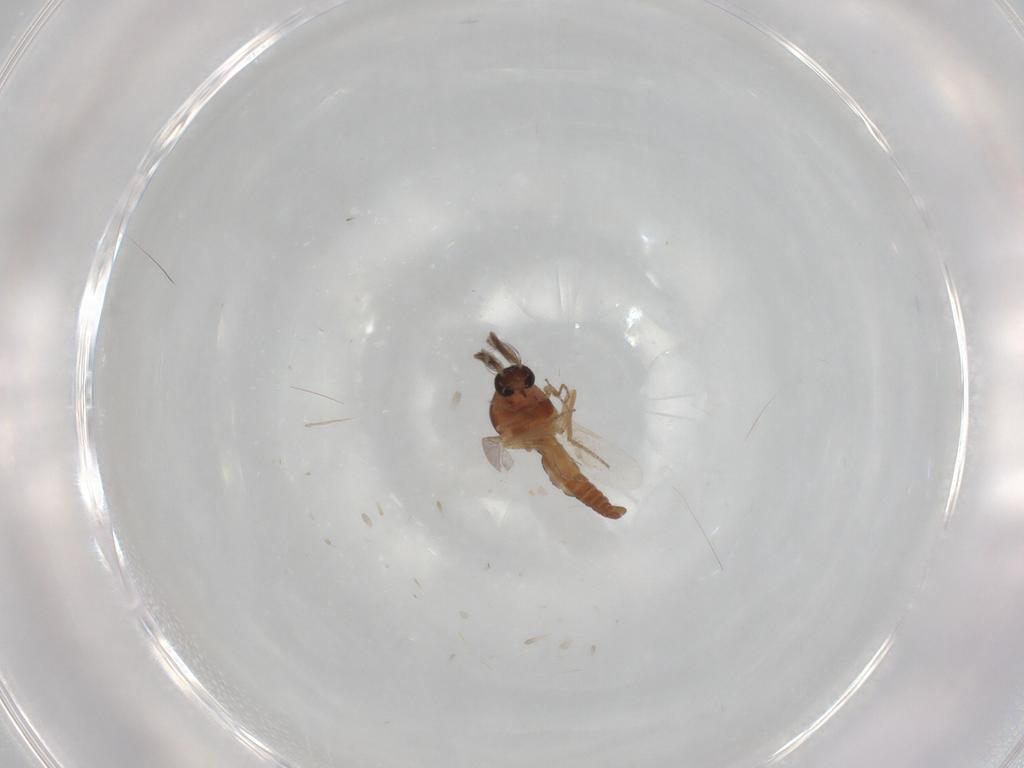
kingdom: Animalia
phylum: Arthropoda
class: Insecta
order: Diptera
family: Ceratopogonidae
